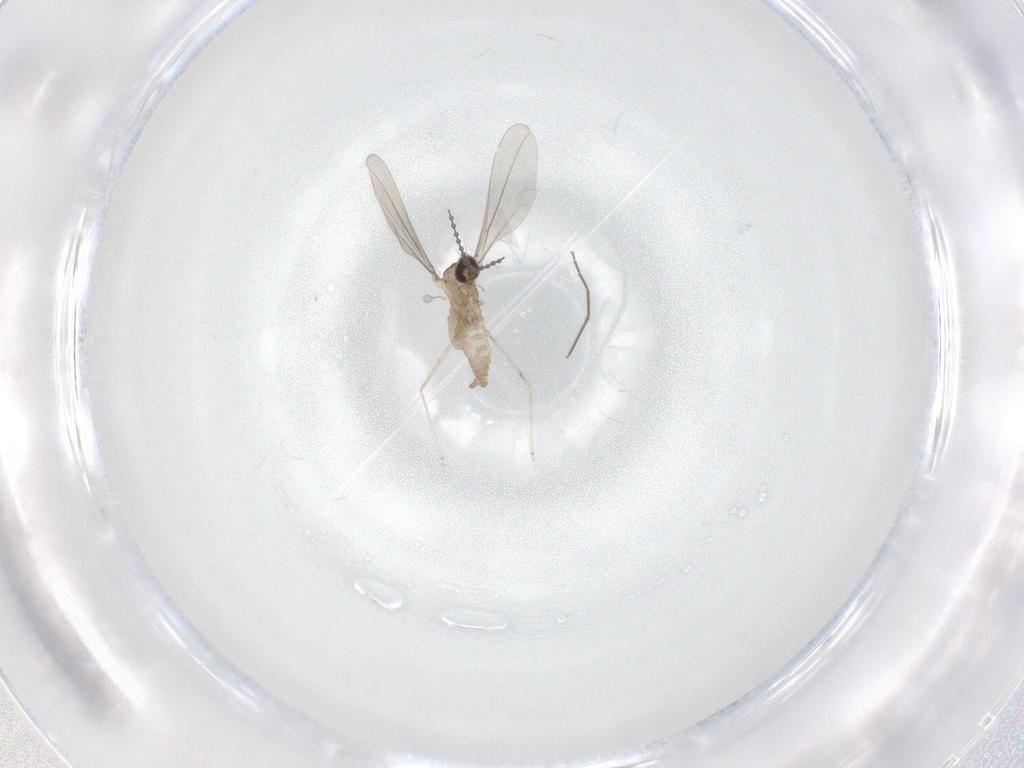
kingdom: Animalia
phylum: Arthropoda
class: Insecta
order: Diptera
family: Cecidomyiidae
